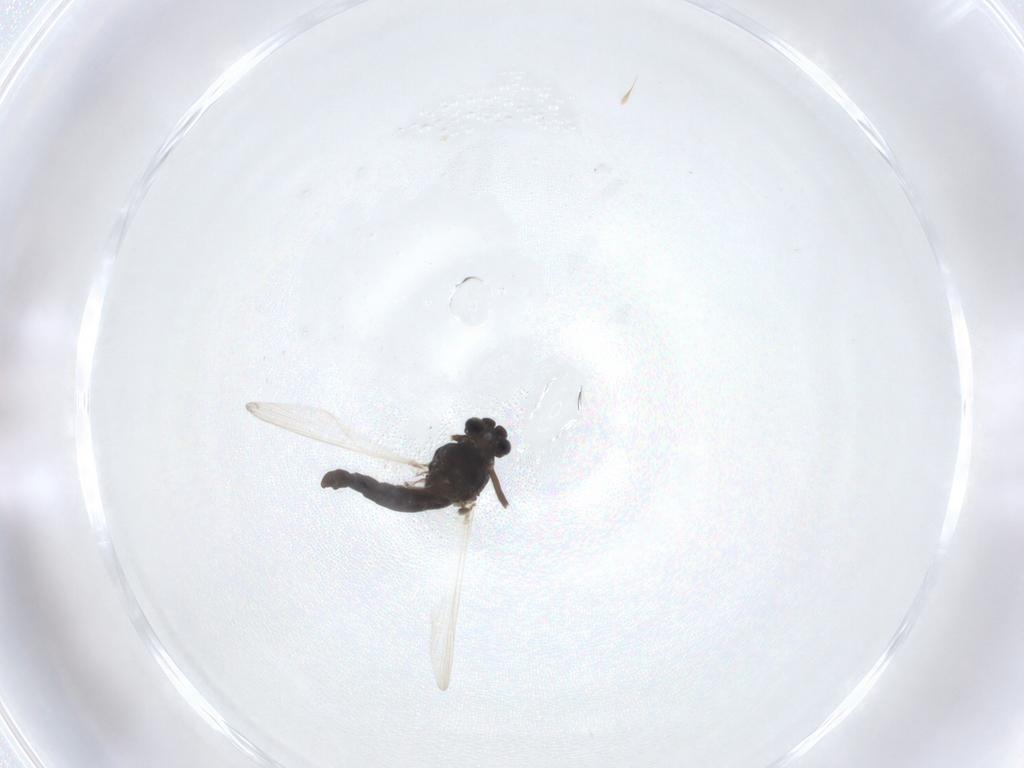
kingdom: Animalia
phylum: Arthropoda
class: Insecta
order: Diptera
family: Chironomidae
